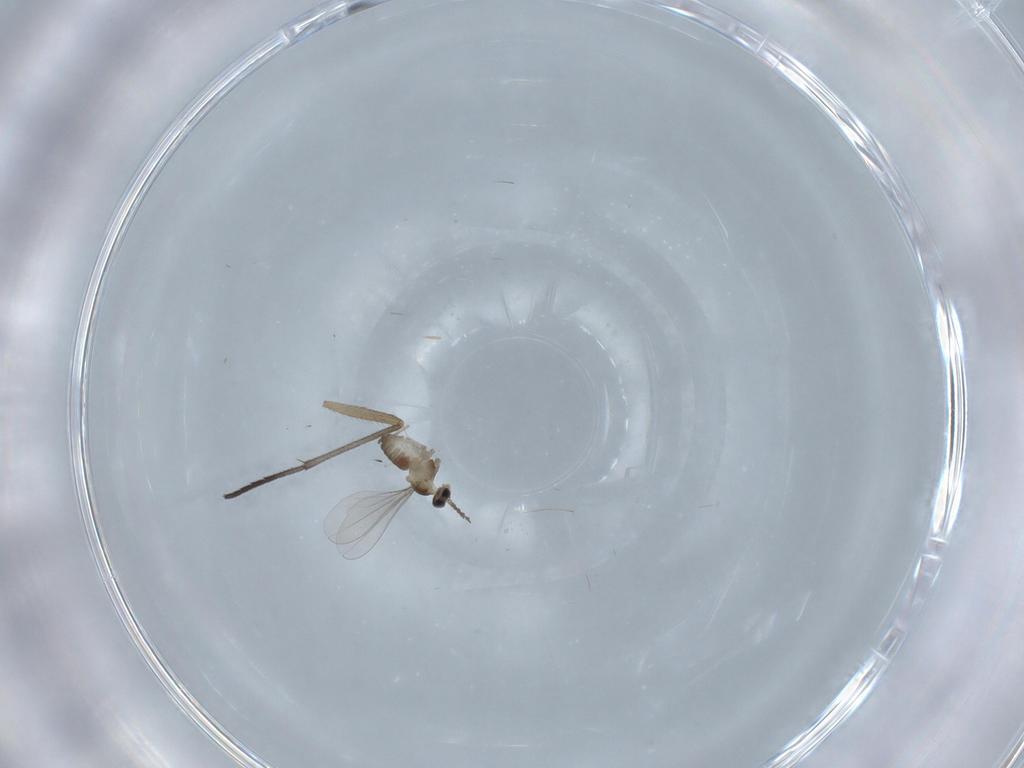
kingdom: Animalia
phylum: Arthropoda
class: Insecta
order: Diptera
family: Cecidomyiidae
